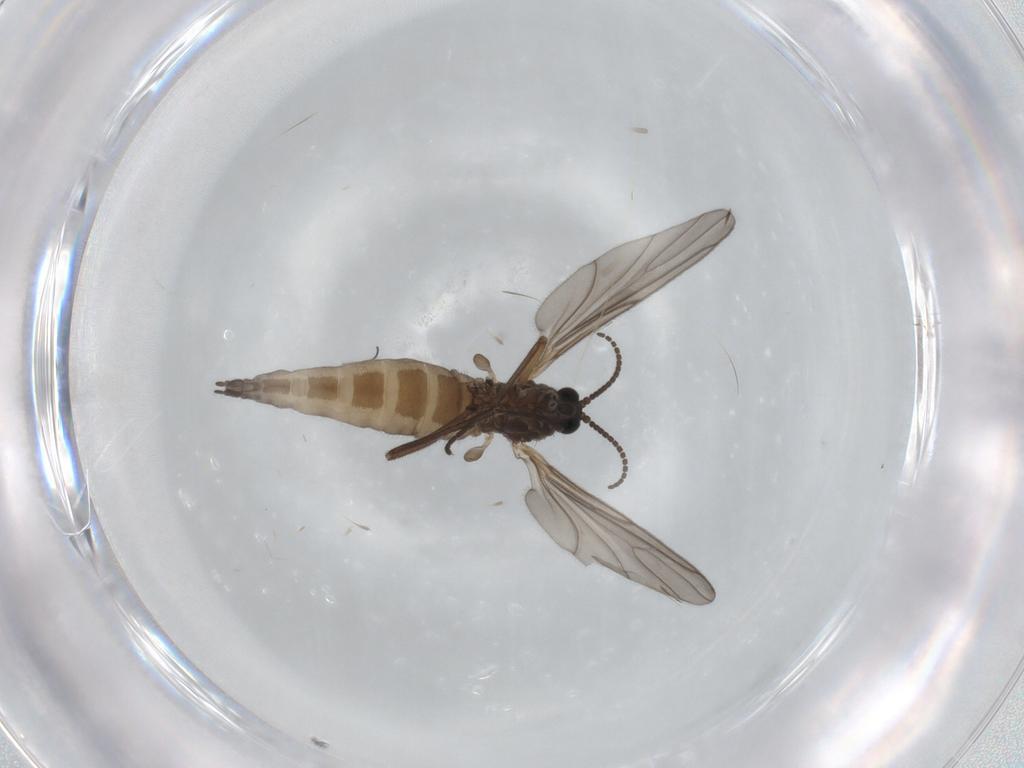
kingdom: Animalia
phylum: Arthropoda
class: Insecta
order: Diptera
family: Sciaridae
